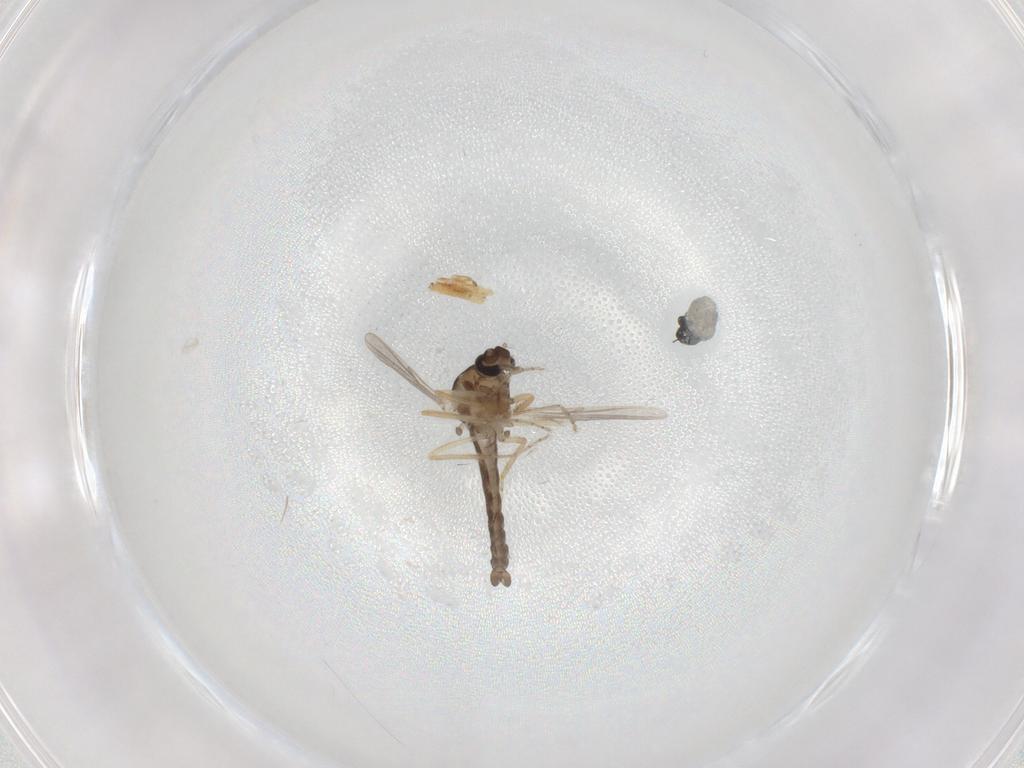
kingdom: Animalia
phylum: Arthropoda
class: Insecta
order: Diptera
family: Ceratopogonidae
